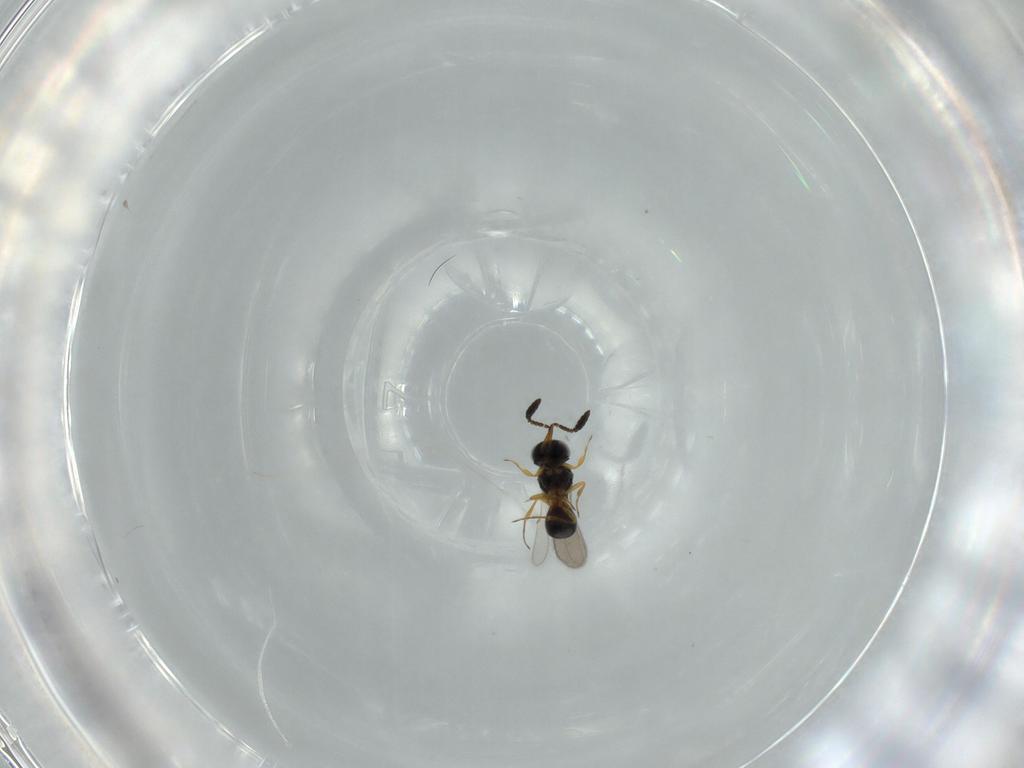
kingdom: Animalia
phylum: Arthropoda
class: Insecta
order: Hymenoptera
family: Scelionidae
